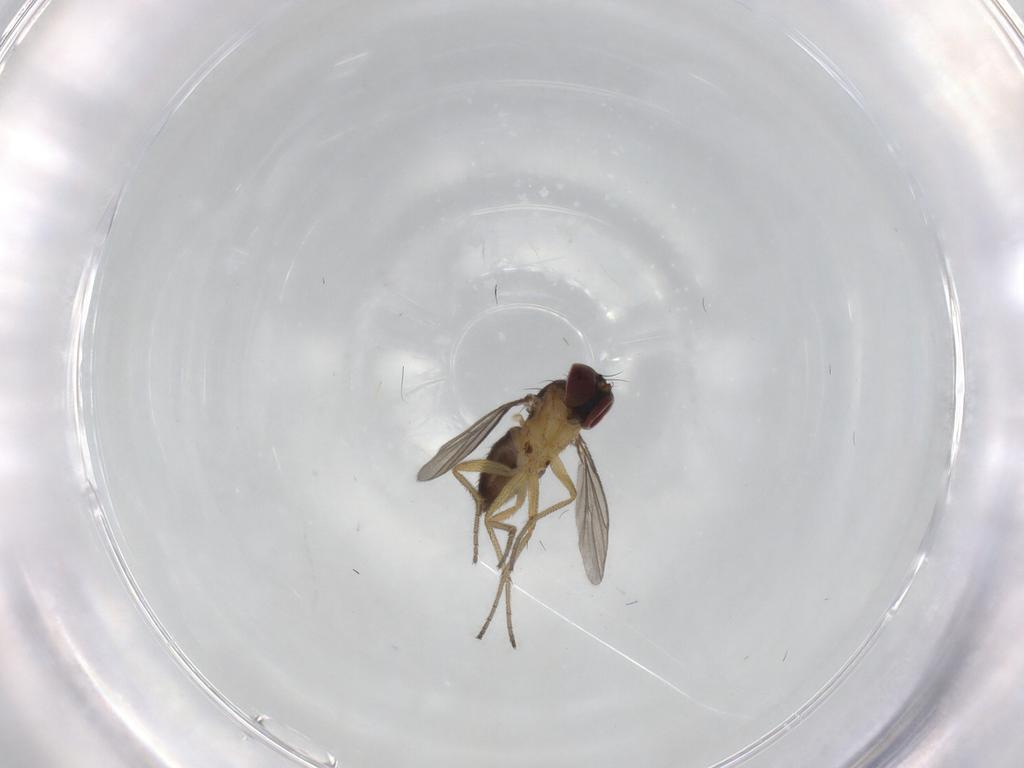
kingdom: Animalia
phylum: Arthropoda
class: Insecta
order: Diptera
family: Dolichopodidae
